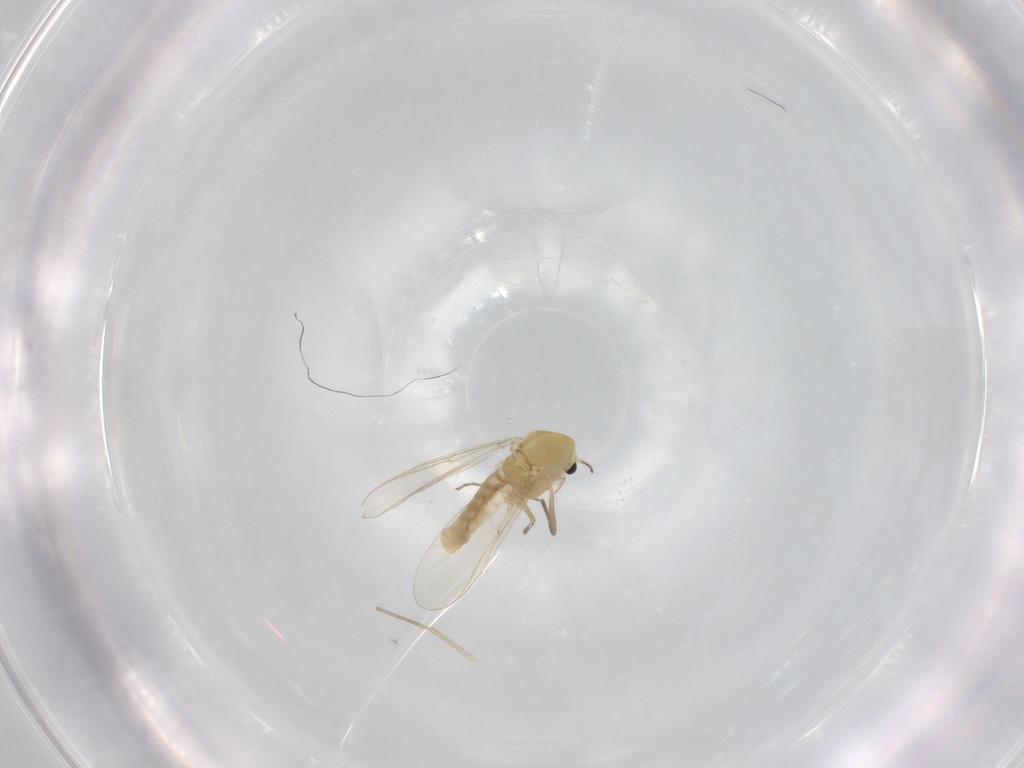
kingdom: Animalia
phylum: Arthropoda
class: Insecta
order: Diptera
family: Chironomidae
